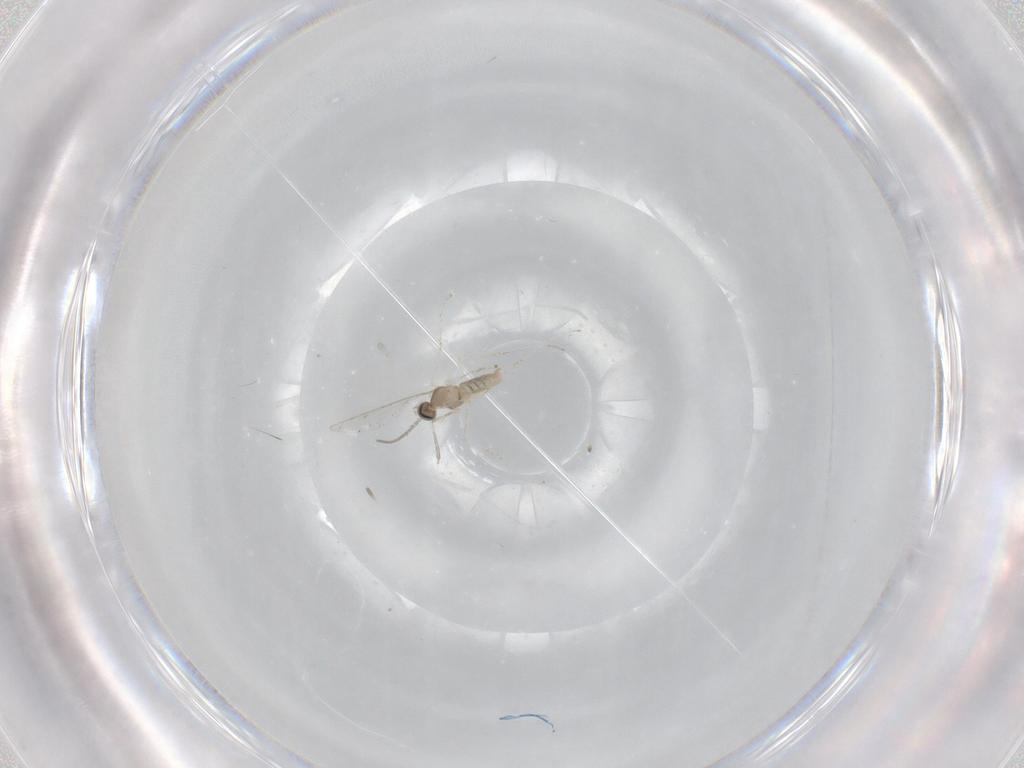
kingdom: Animalia
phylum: Arthropoda
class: Insecta
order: Diptera
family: Cecidomyiidae
